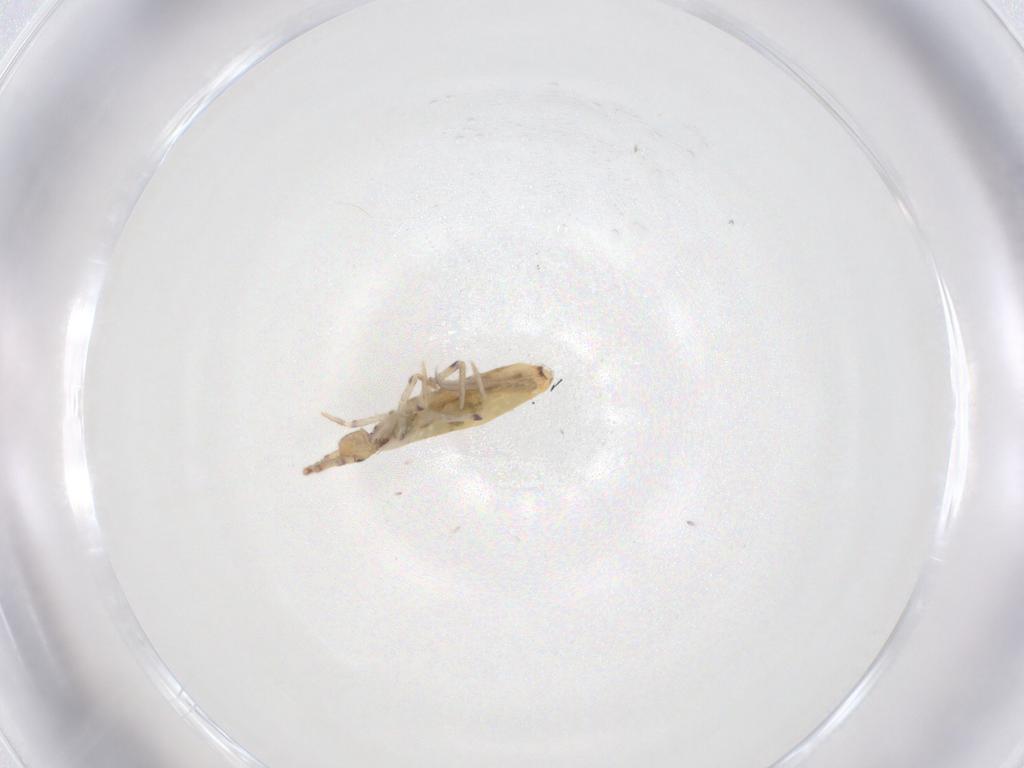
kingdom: Animalia
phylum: Arthropoda
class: Collembola
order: Entomobryomorpha
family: Entomobryidae
